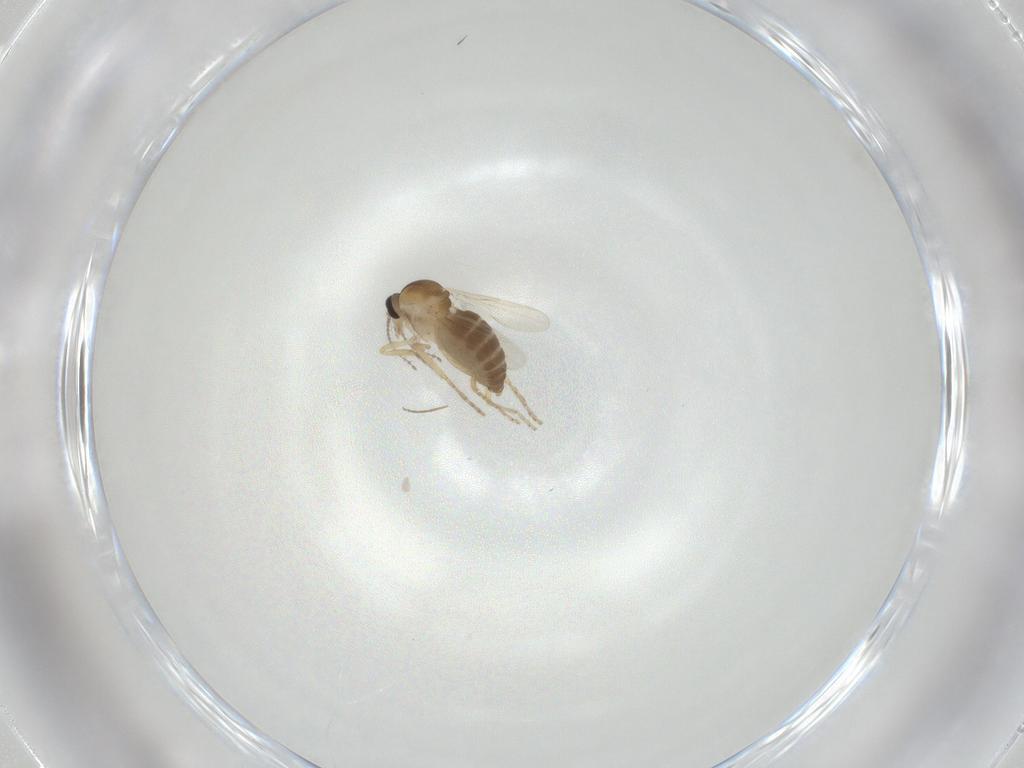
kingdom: Animalia
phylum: Arthropoda
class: Insecta
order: Diptera
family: Ceratopogonidae
